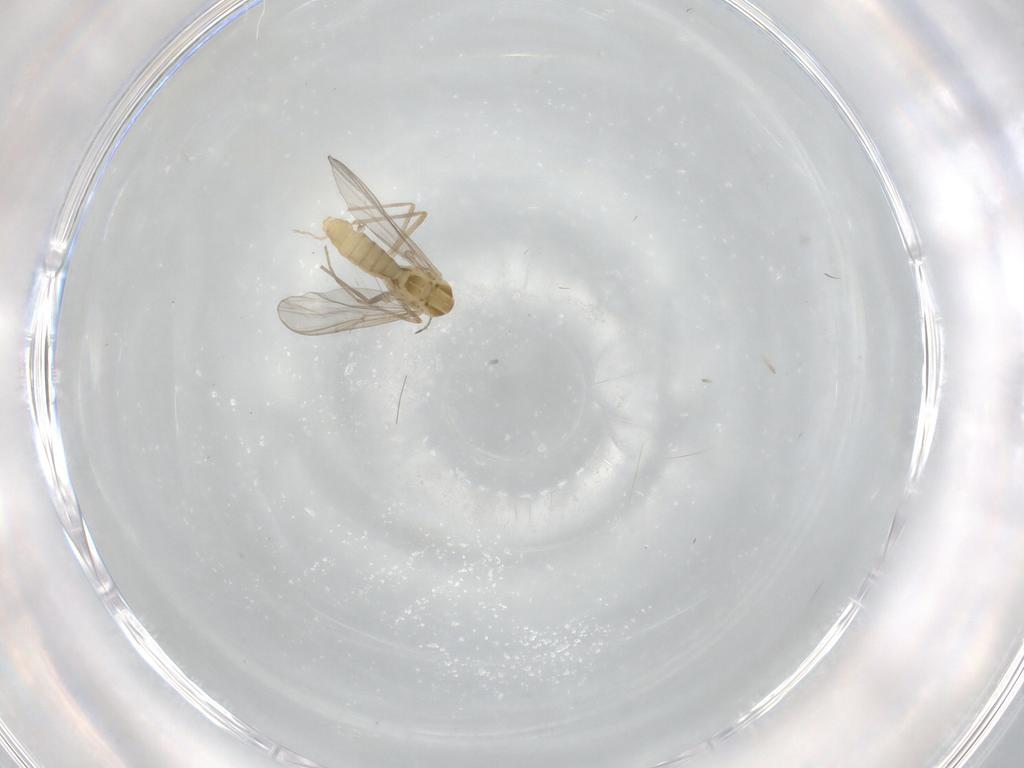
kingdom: Animalia
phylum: Arthropoda
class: Insecta
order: Diptera
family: Chironomidae
